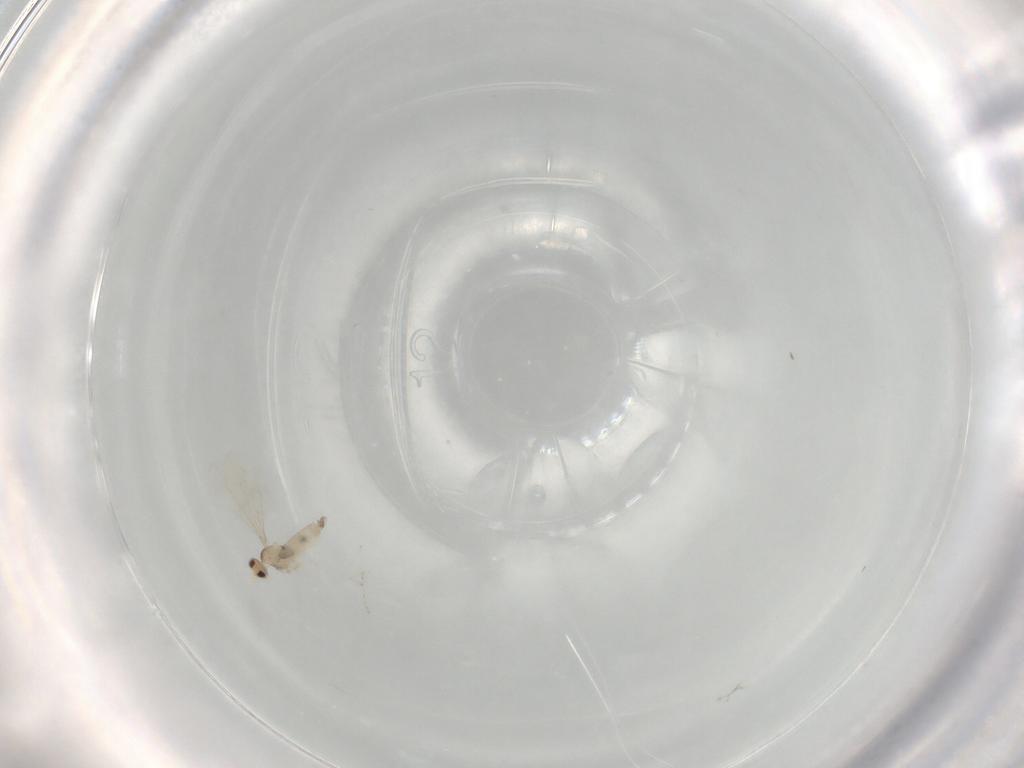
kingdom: Animalia
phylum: Arthropoda
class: Insecta
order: Diptera
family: Cecidomyiidae
